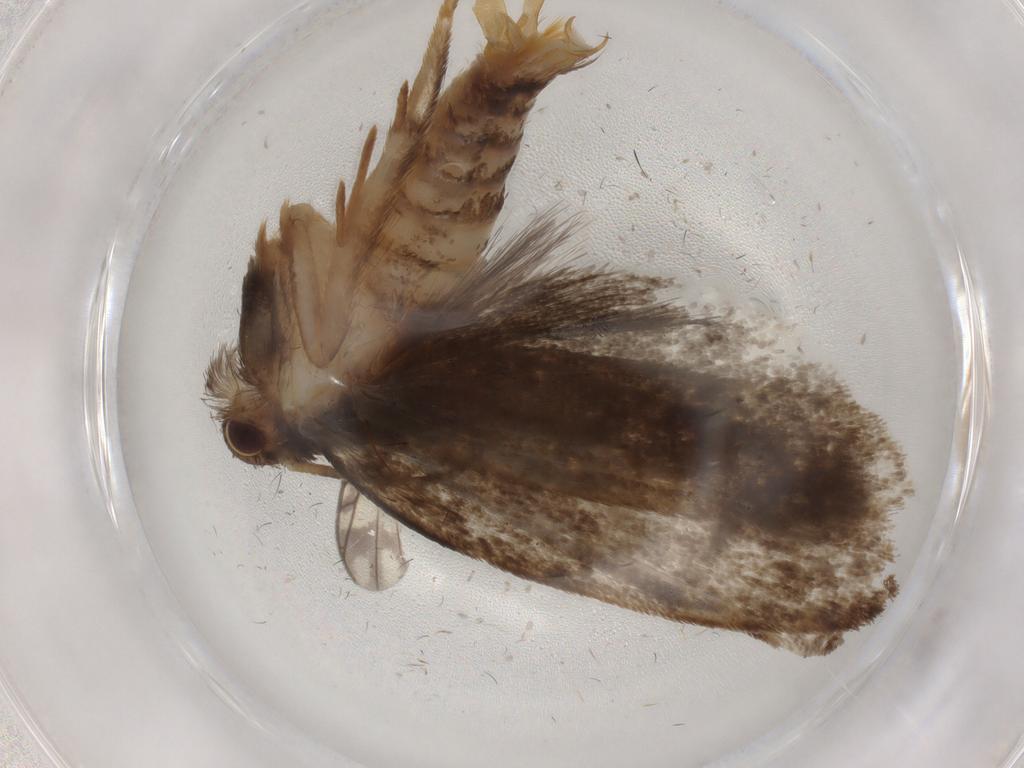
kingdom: Animalia
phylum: Arthropoda
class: Insecta
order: Lepidoptera
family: Tineidae
